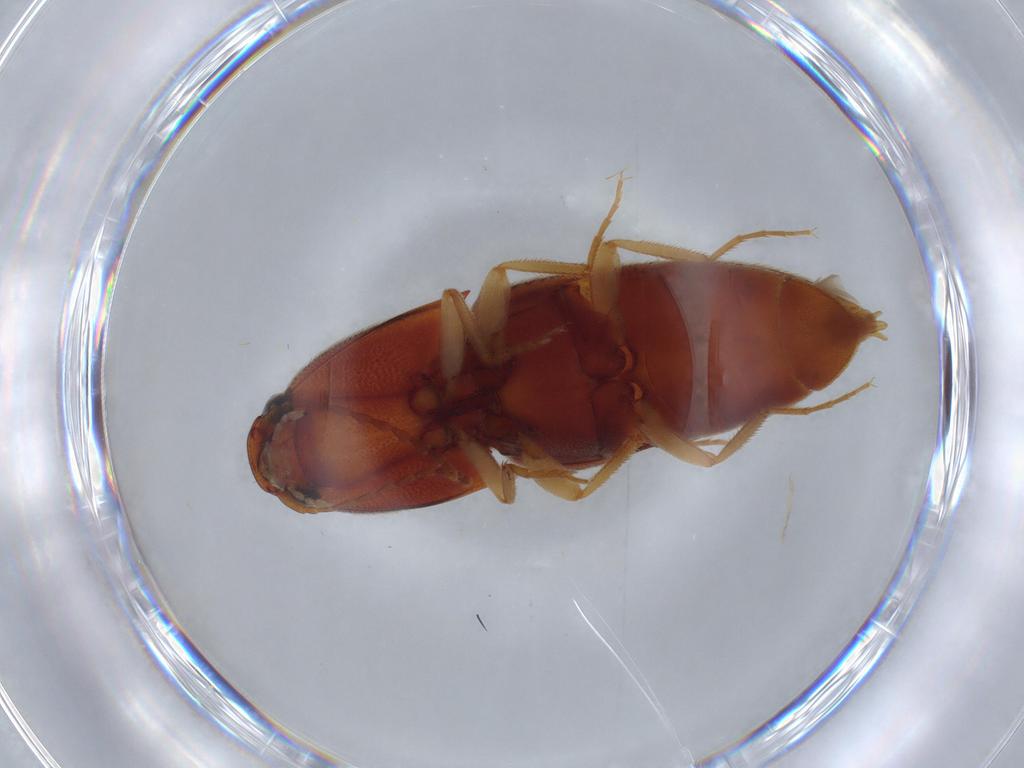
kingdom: Animalia
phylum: Arthropoda
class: Insecta
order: Coleoptera
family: Elateridae
